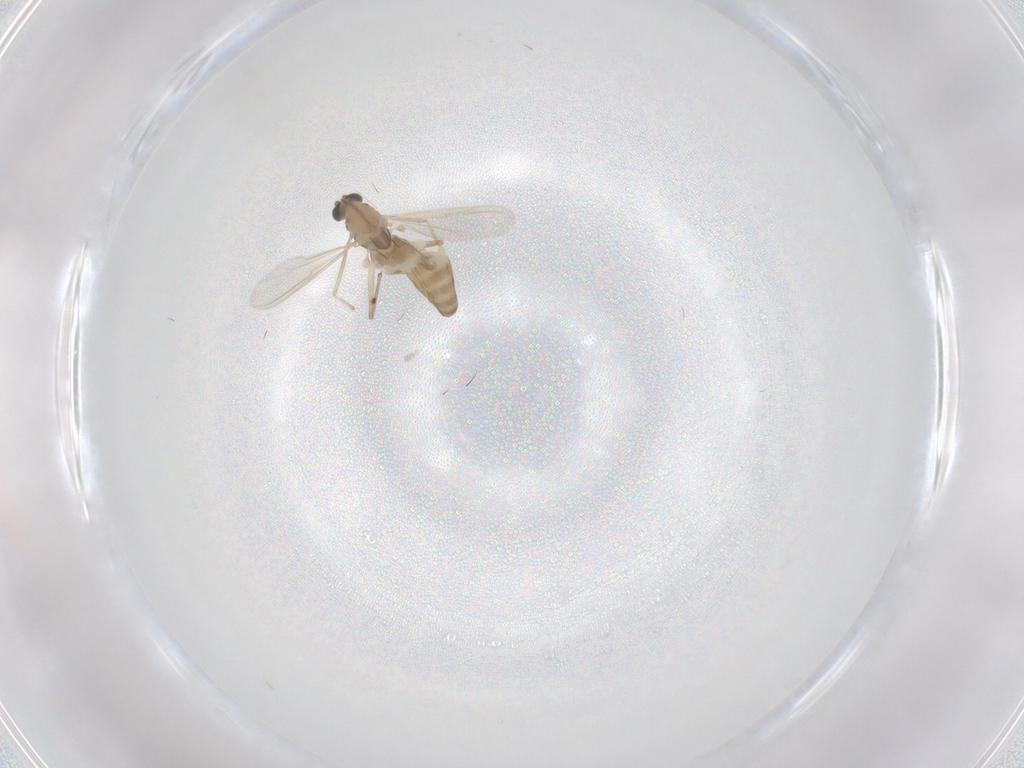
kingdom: Animalia
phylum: Arthropoda
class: Insecta
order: Diptera
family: Chironomidae
